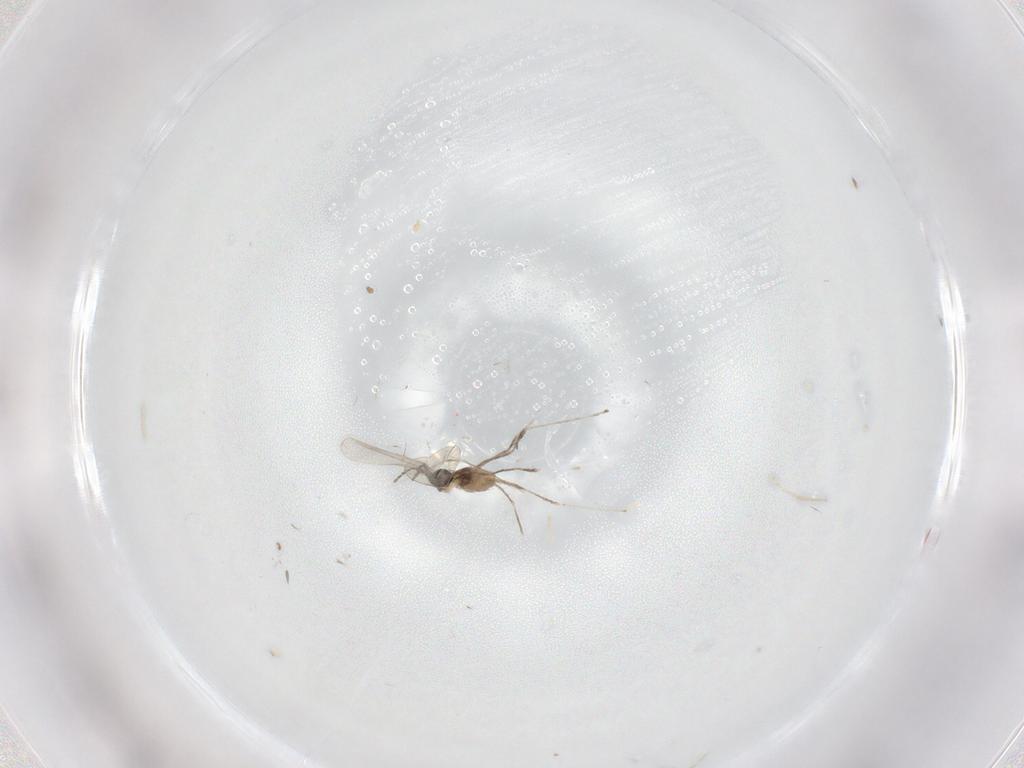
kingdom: Animalia
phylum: Arthropoda
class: Insecta
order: Diptera
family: Cecidomyiidae
